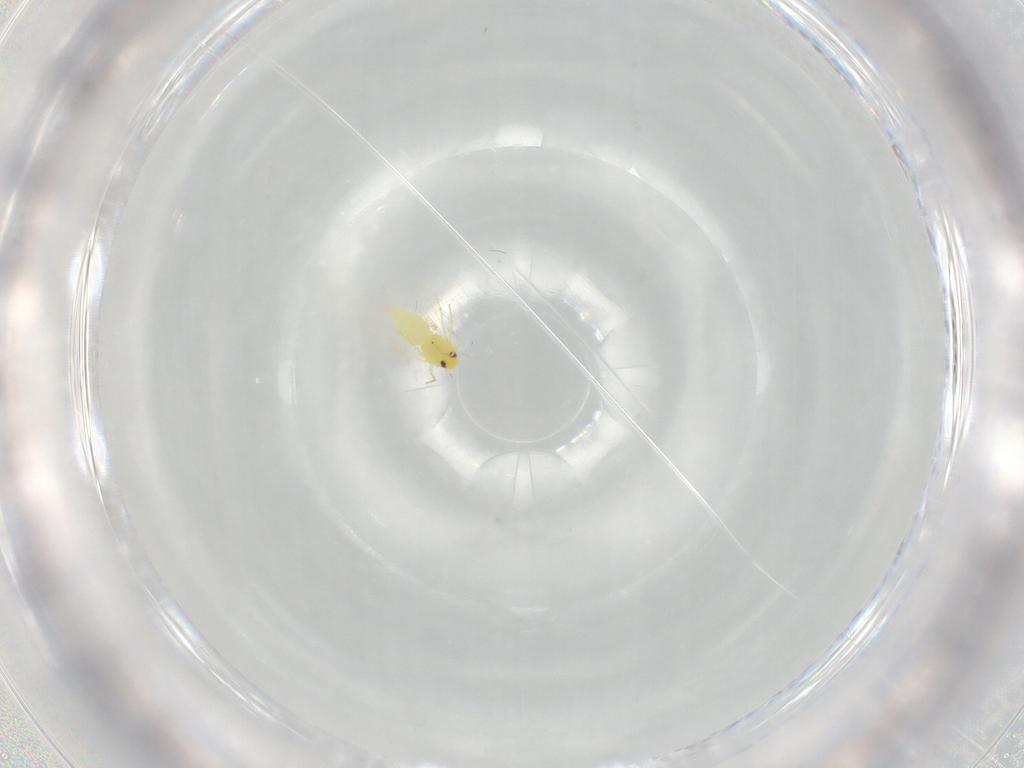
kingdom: Animalia
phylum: Arthropoda
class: Insecta
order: Hemiptera
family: Aleyrodidae
